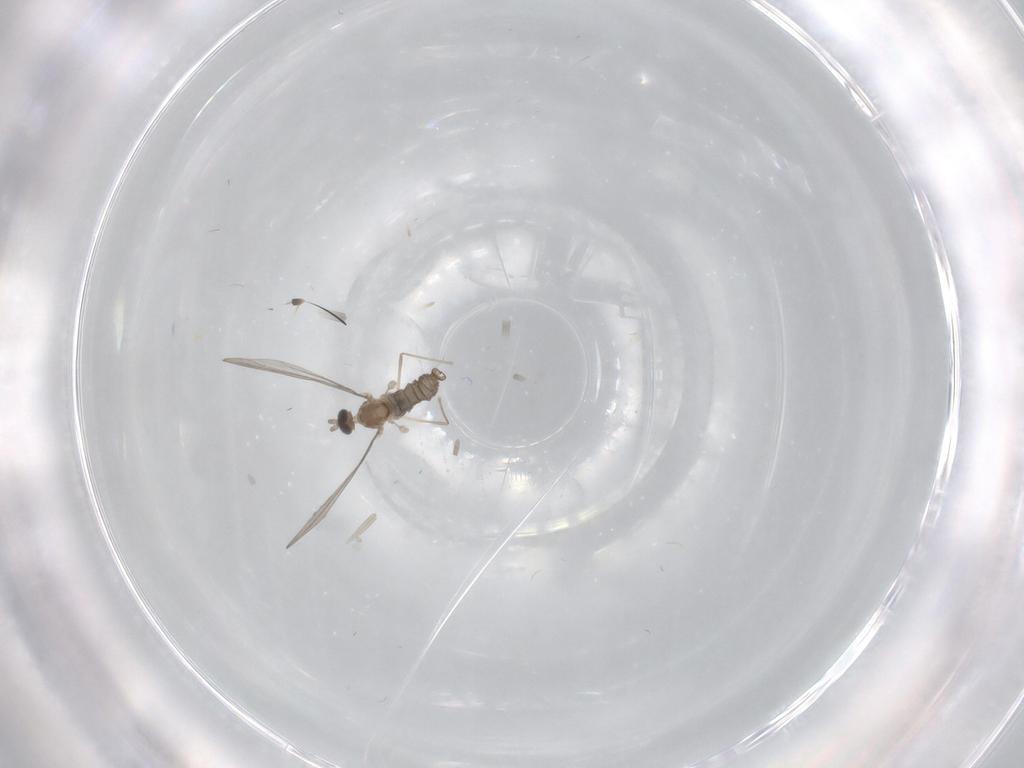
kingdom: Animalia
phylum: Arthropoda
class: Insecta
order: Diptera
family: Cecidomyiidae
